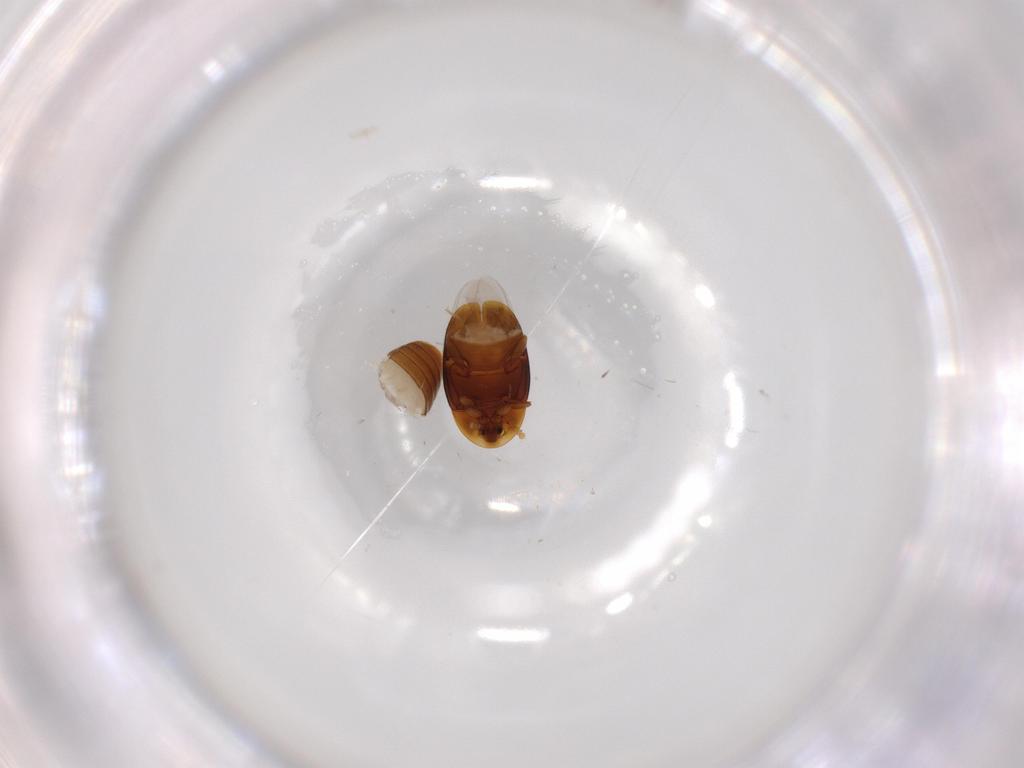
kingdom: Animalia
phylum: Arthropoda
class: Insecta
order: Coleoptera
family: Corylophidae
